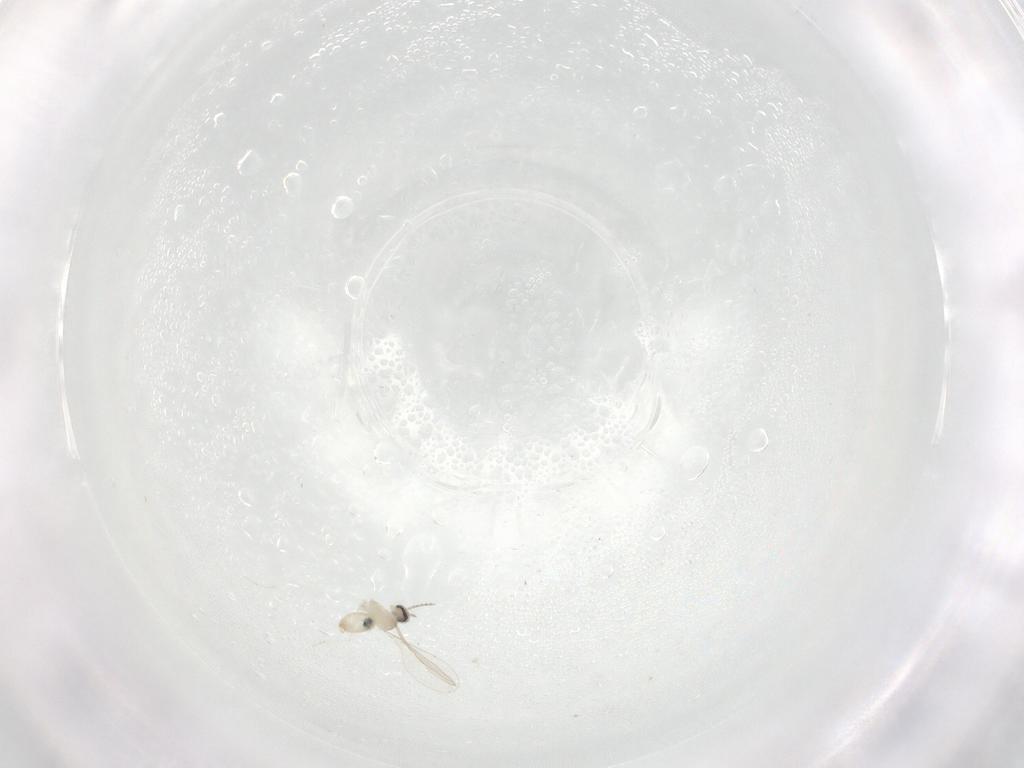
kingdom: Animalia
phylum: Arthropoda
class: Insecta
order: Diptera
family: Cecidomyiidae
